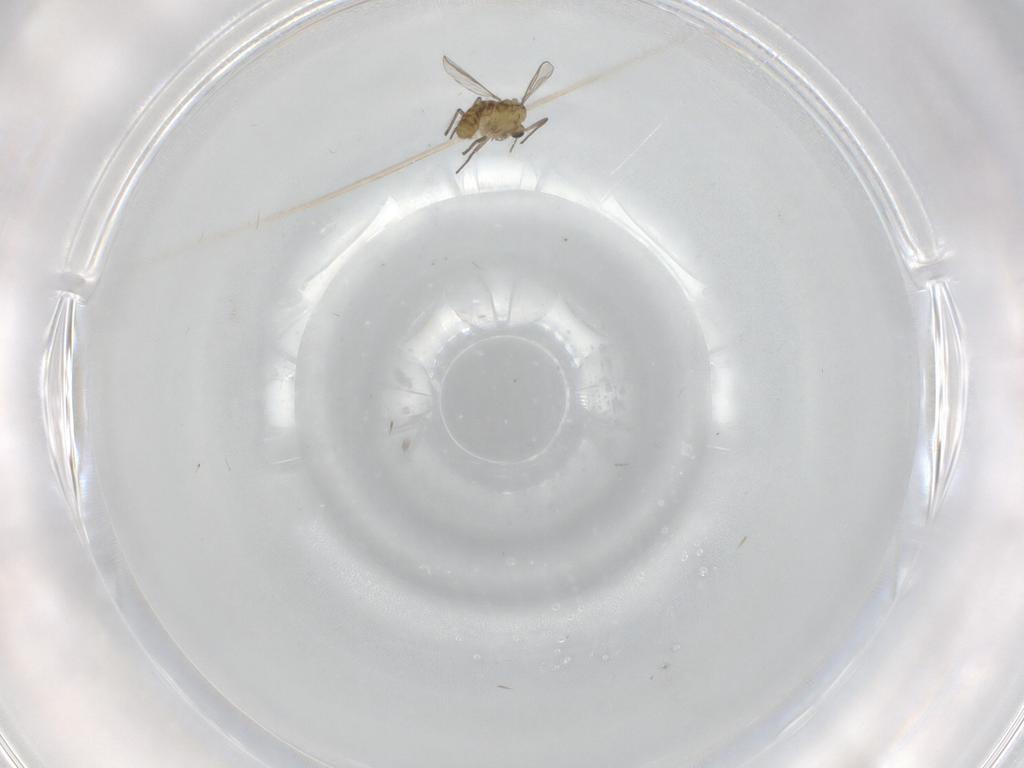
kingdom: Animalia
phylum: Arthropoda
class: Insecta
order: Diptera
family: Chironomidae
